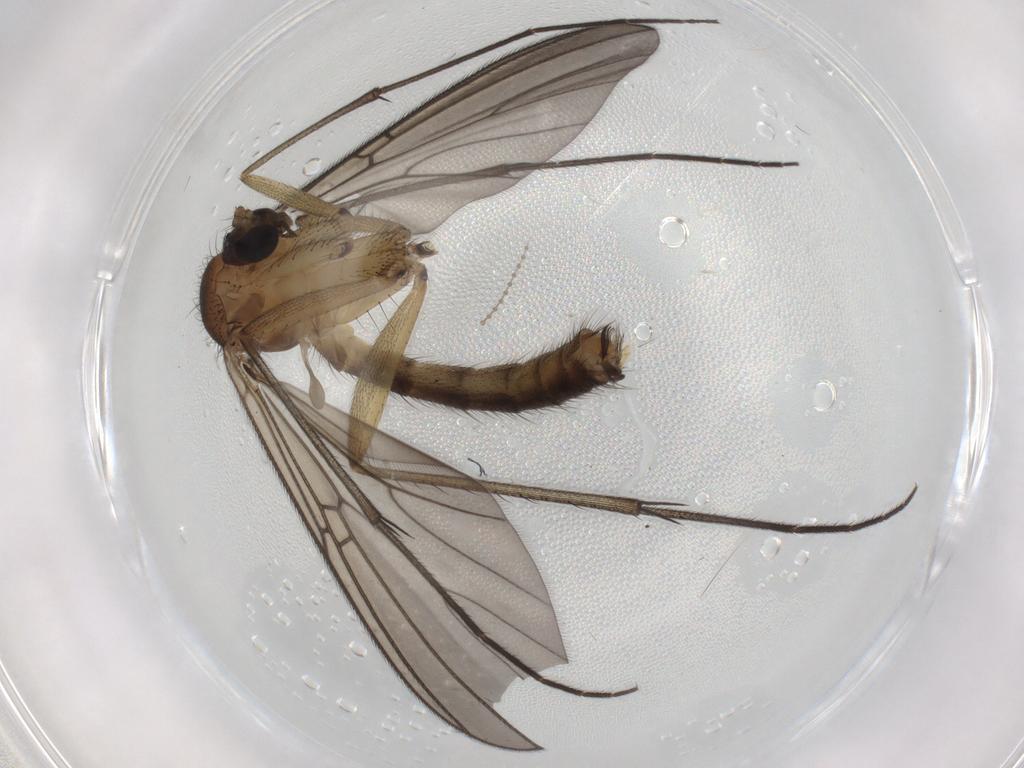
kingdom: Animalia
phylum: Arthropoda
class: Insecta
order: Diptera
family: Mycetophilidae
